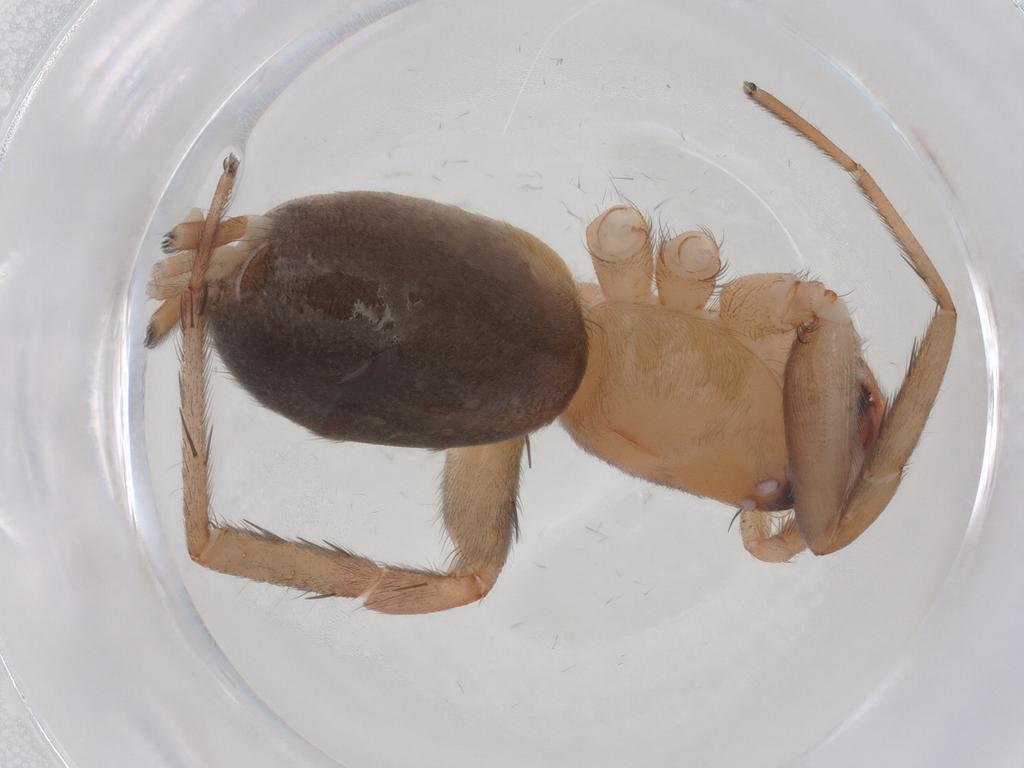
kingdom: Animalia
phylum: Arthropoda
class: Arachnida
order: Araneae
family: Gnaphosidae
